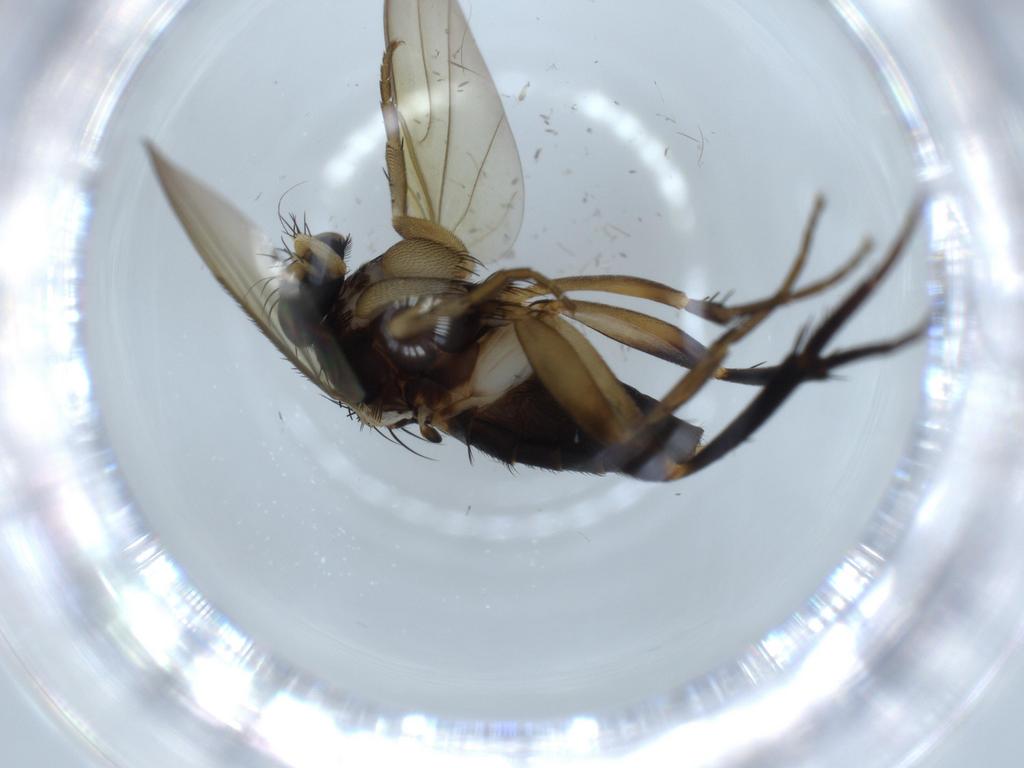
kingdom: Animalia
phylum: Arthropoda
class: Insecta
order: Diptera
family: Phoridae
